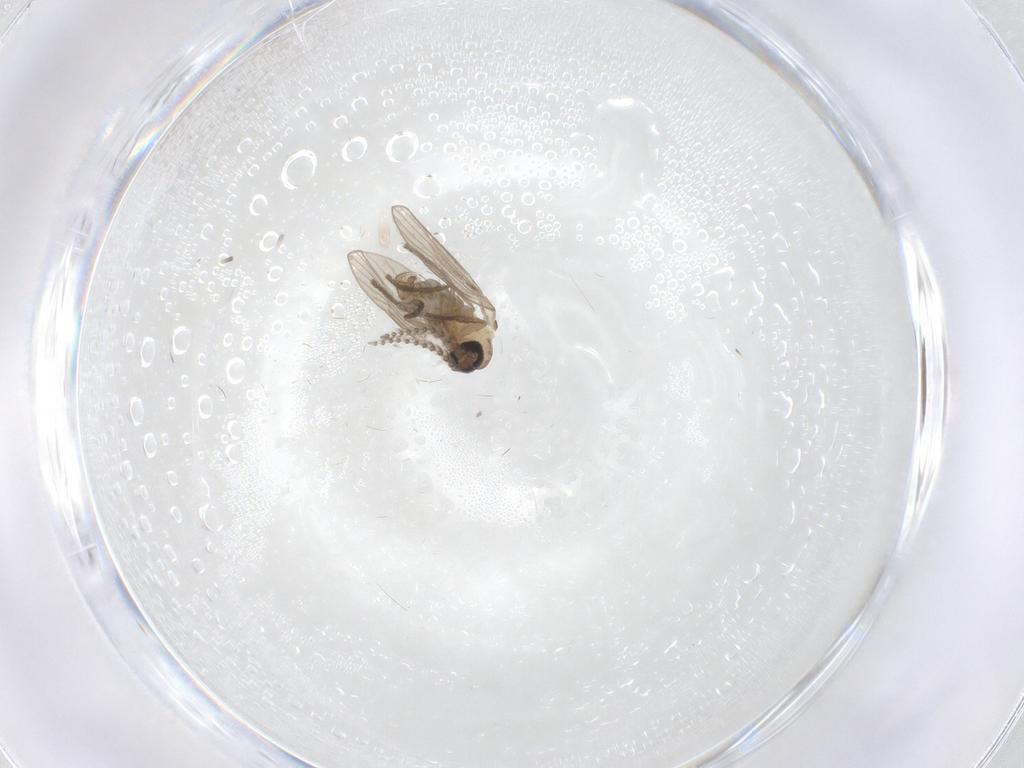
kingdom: Animalia
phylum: Arthropoda
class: Insecta
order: Diptera
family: Psychodidae
